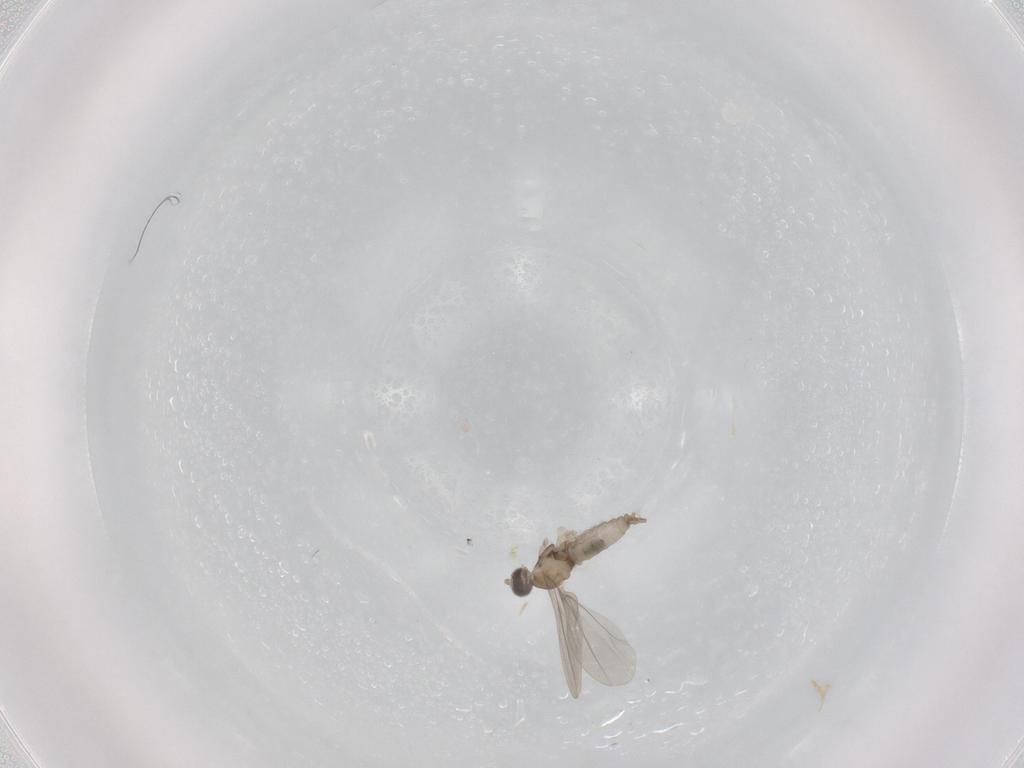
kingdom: Animalia
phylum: Arthropoda
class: Insecta
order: Diptera
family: Cecidomyiidae
